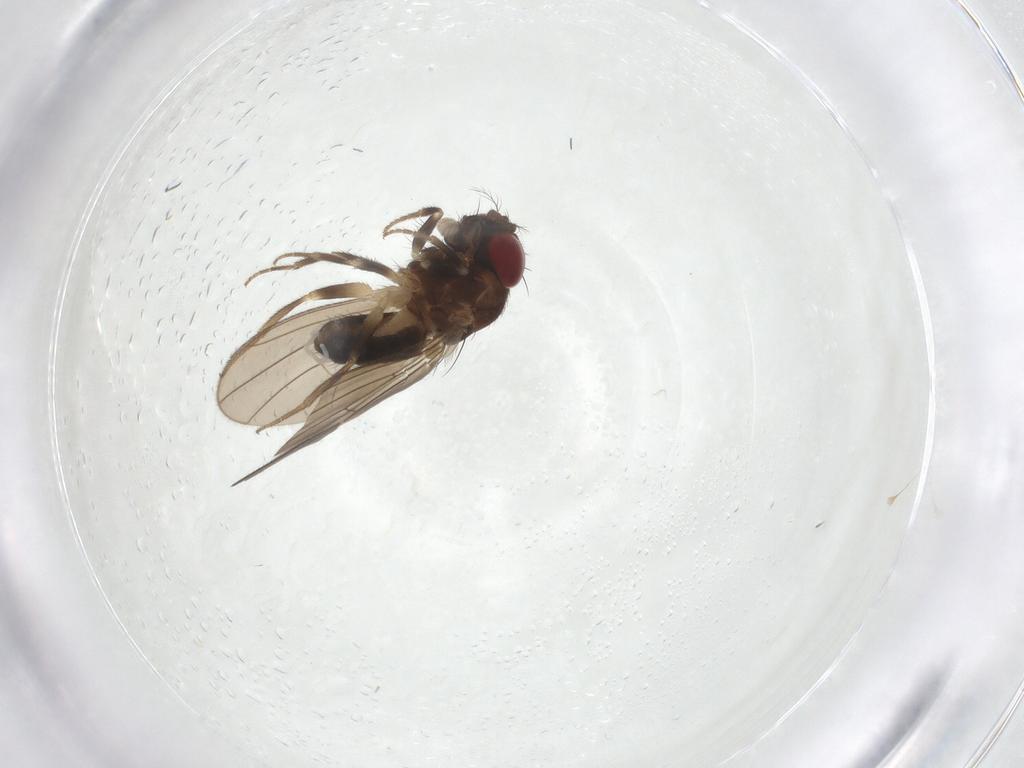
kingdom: Animalia
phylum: Arthropoda
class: Insecta
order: Diptera
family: Drosophilidae
